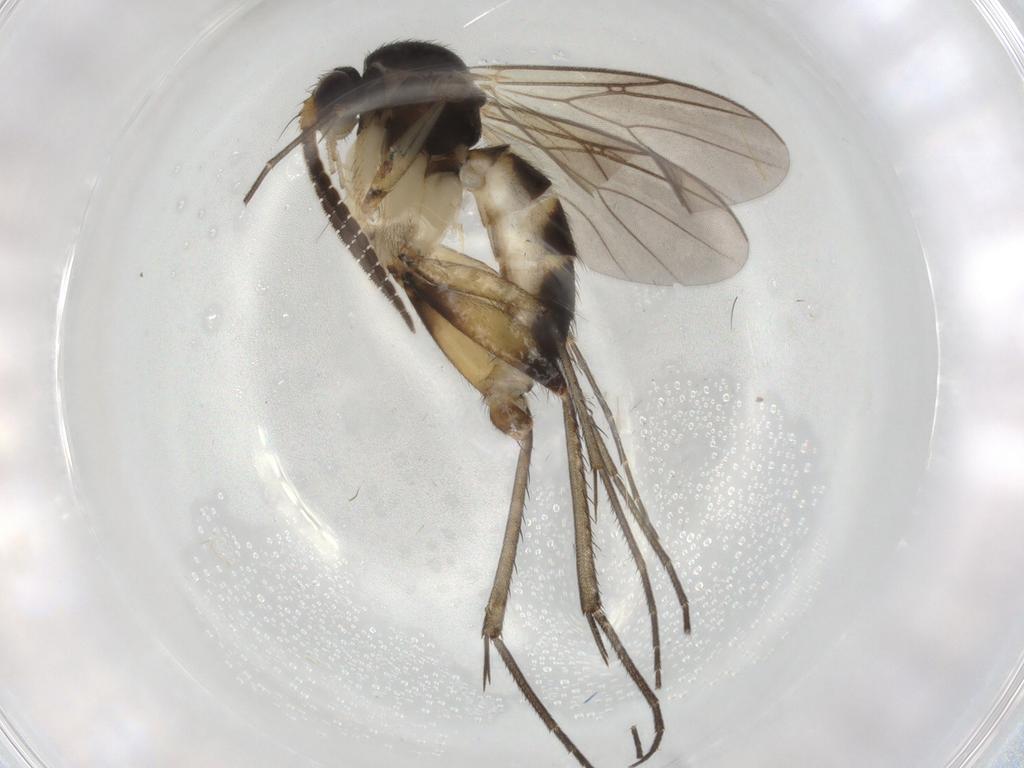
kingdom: Animalia
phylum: Arthropoda
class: Insecta
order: Diptera
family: Mycetophilidae
